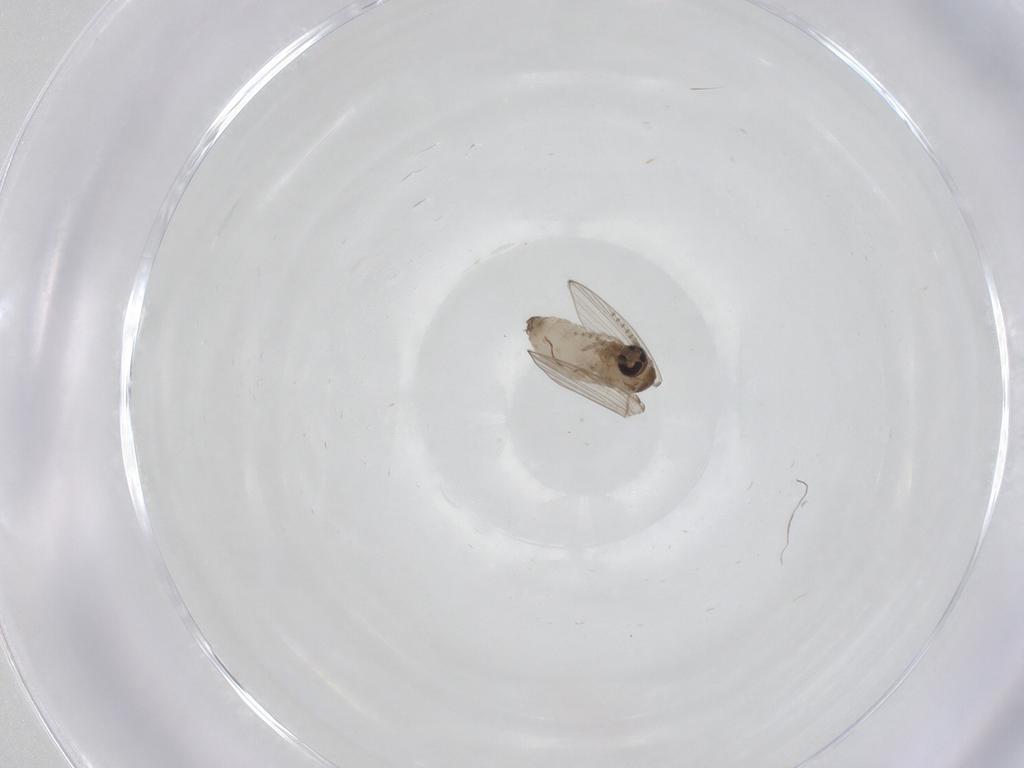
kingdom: Animalia
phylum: Arthropoda
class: Insecta
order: Diptera
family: Psychodidae
